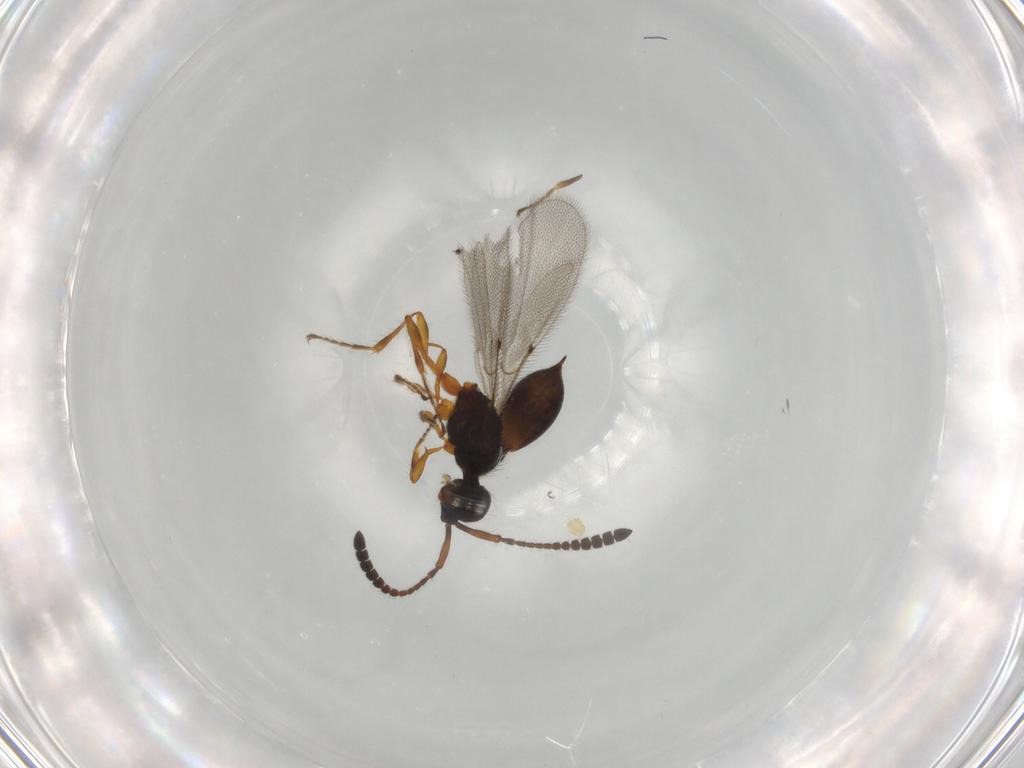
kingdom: Animalia
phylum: Arthropoda
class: Insecta
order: Hymenoptera
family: Diapriidae
